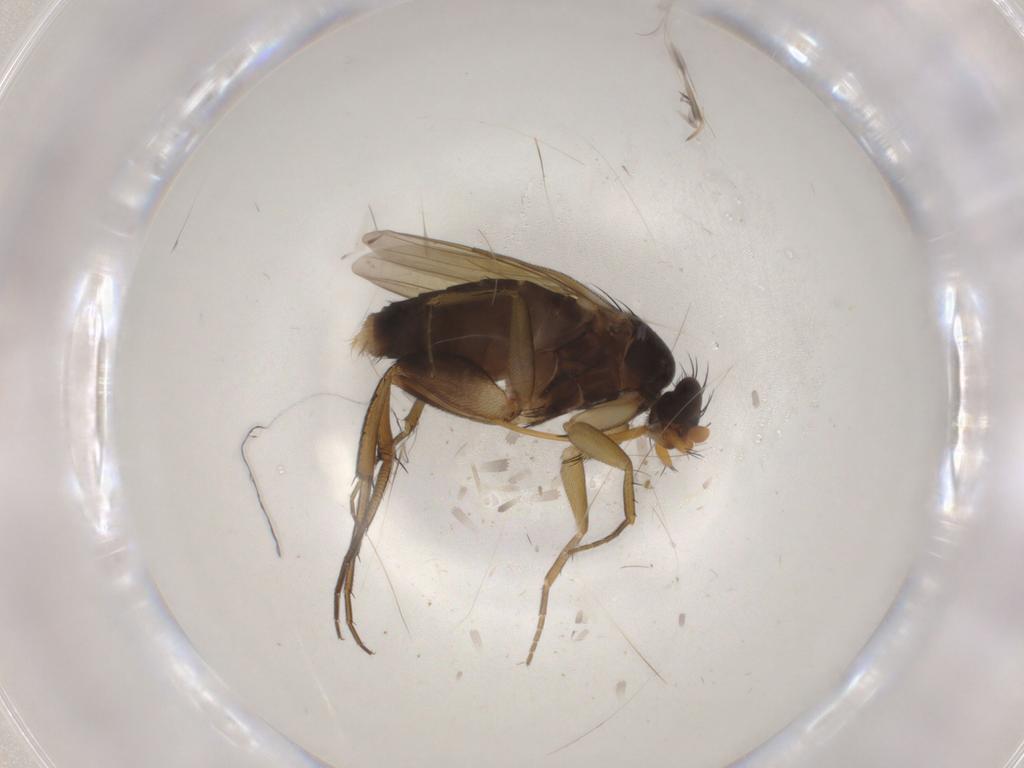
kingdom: Animalia
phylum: Arthropoda
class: Insecta
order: Diptera
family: Phoridae
